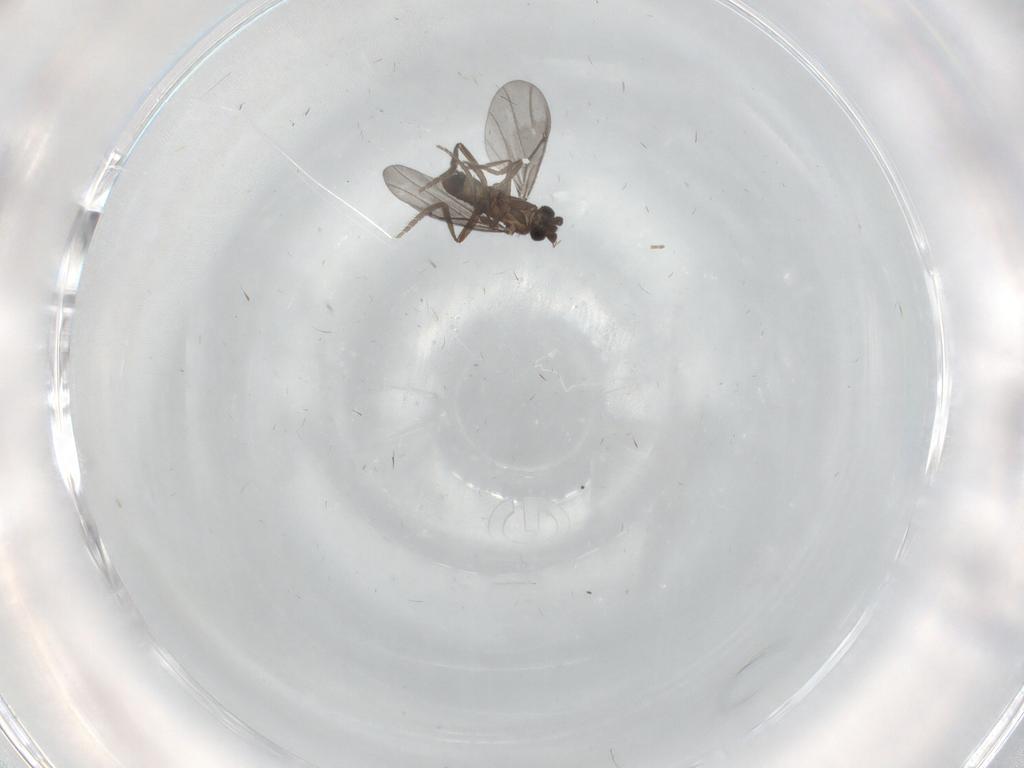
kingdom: Animalia
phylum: Arthropoda
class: Insecta
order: Diptera
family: Phoridae
